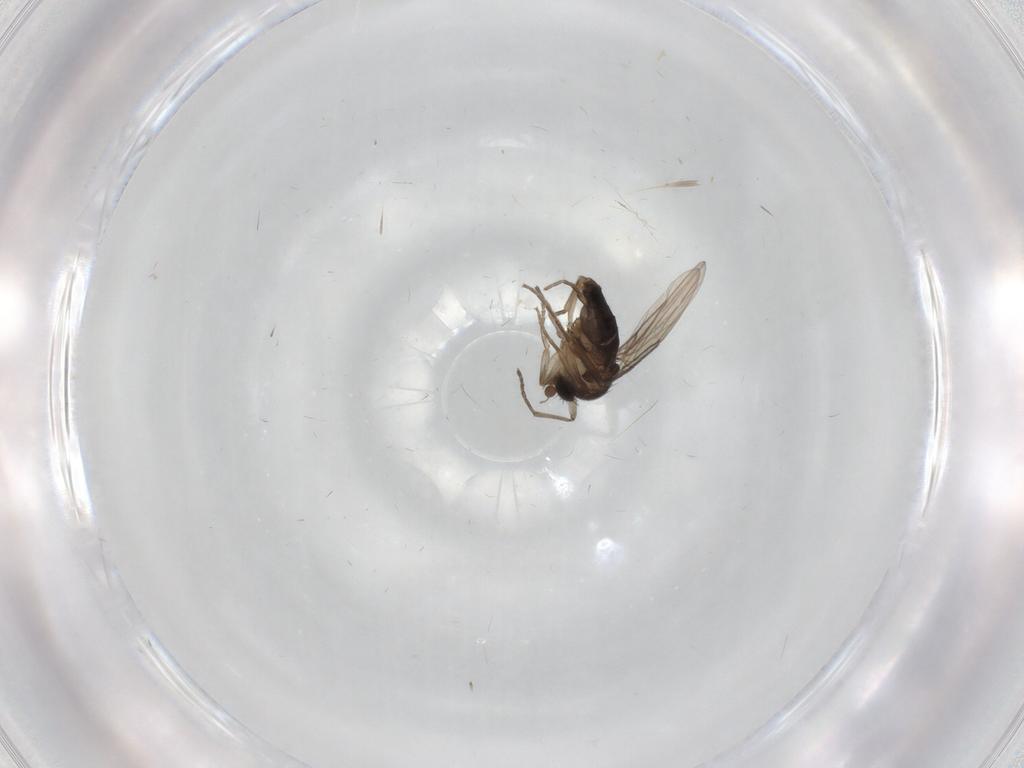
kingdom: Animalia
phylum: Arthropoda
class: Insecta
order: Diptera
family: Sciaridae
